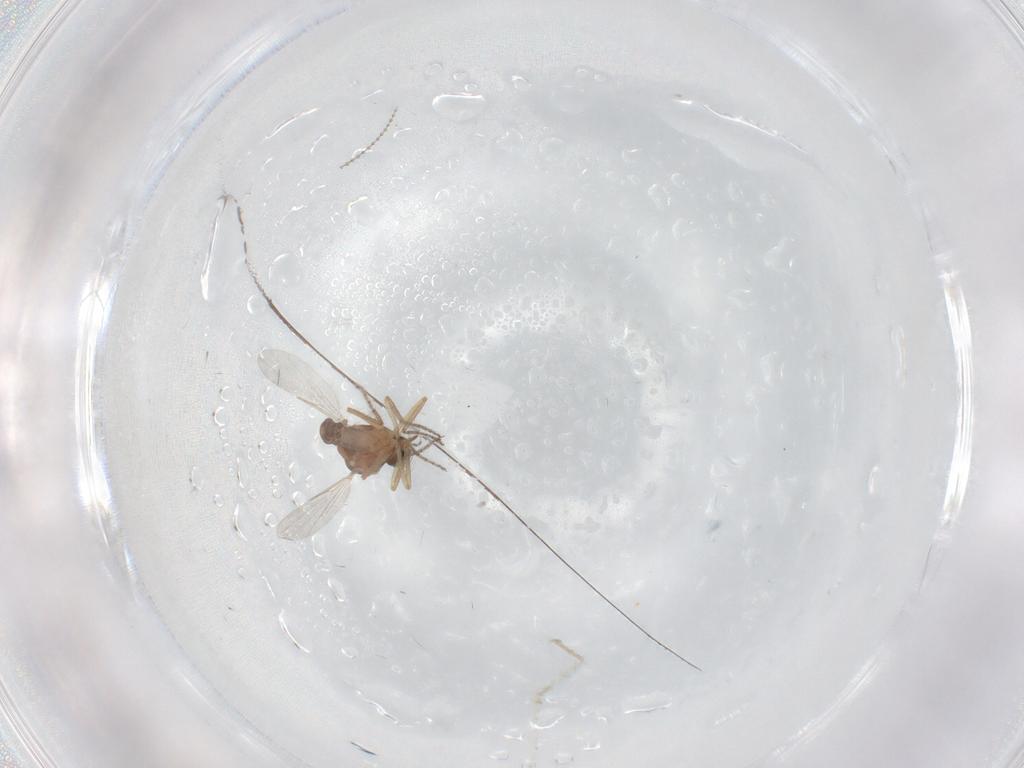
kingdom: Animalia
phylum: Arthropoda
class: Insecta
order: Diptera
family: Ceratopogonidae
